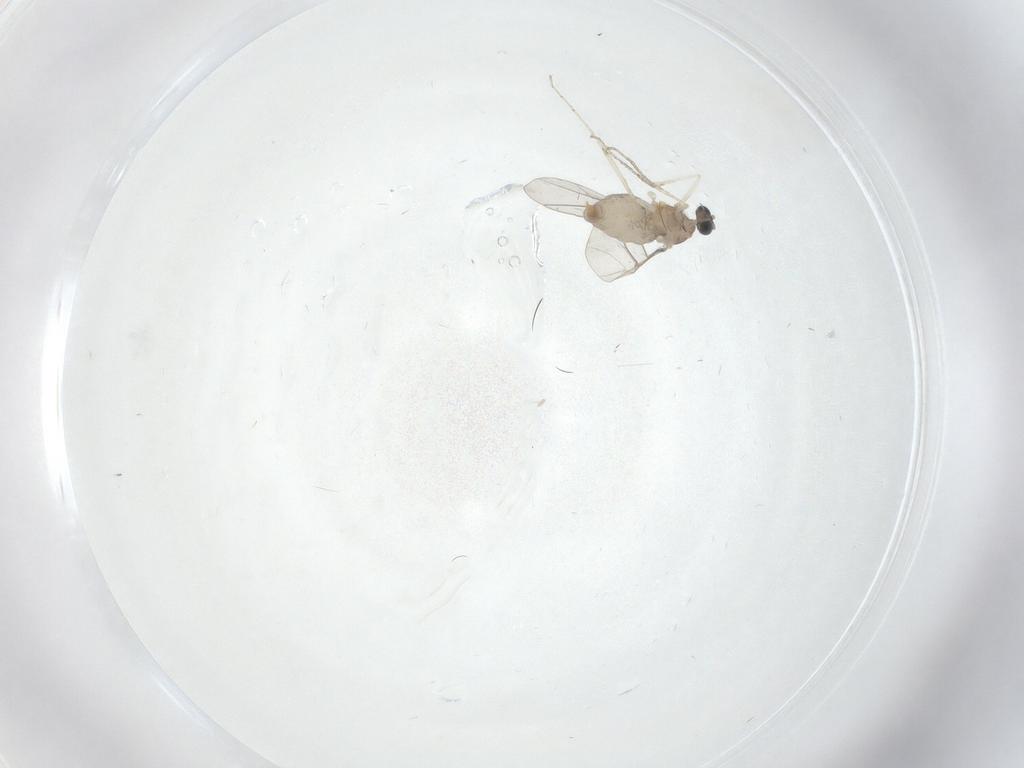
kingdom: Animalia
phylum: Arthropoda
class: Insecta
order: Diptera
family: Cecidomyiidae
